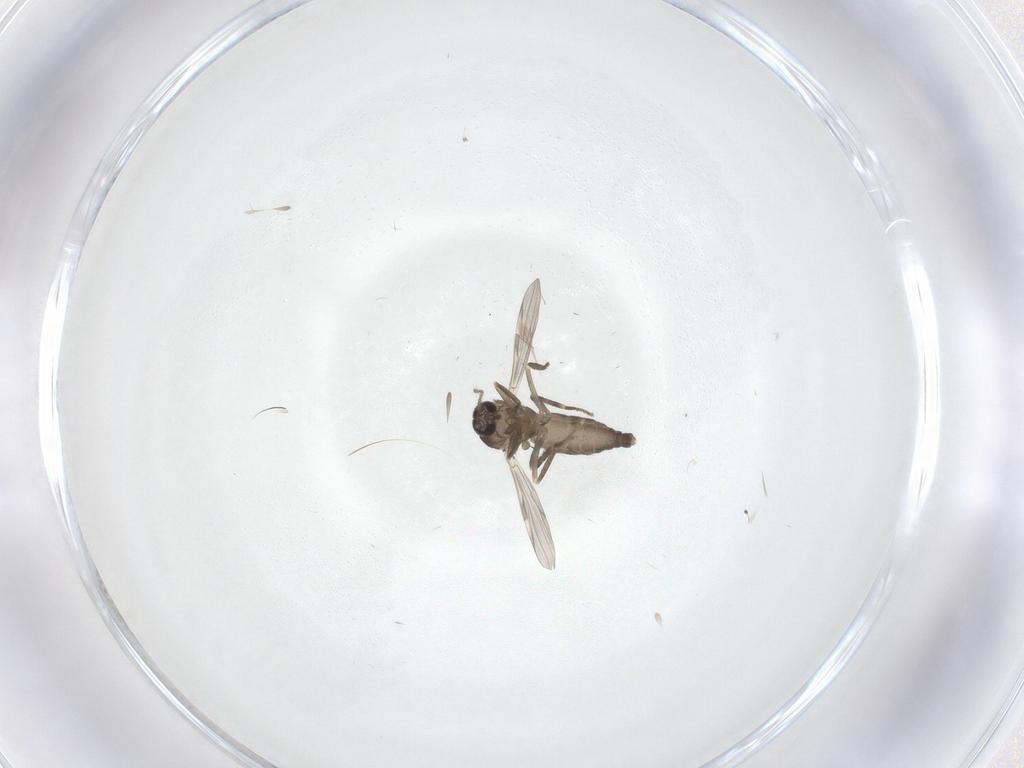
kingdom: Animalia
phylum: Arthropoda
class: Insecta
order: Diptera
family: Ceratopogonidae
